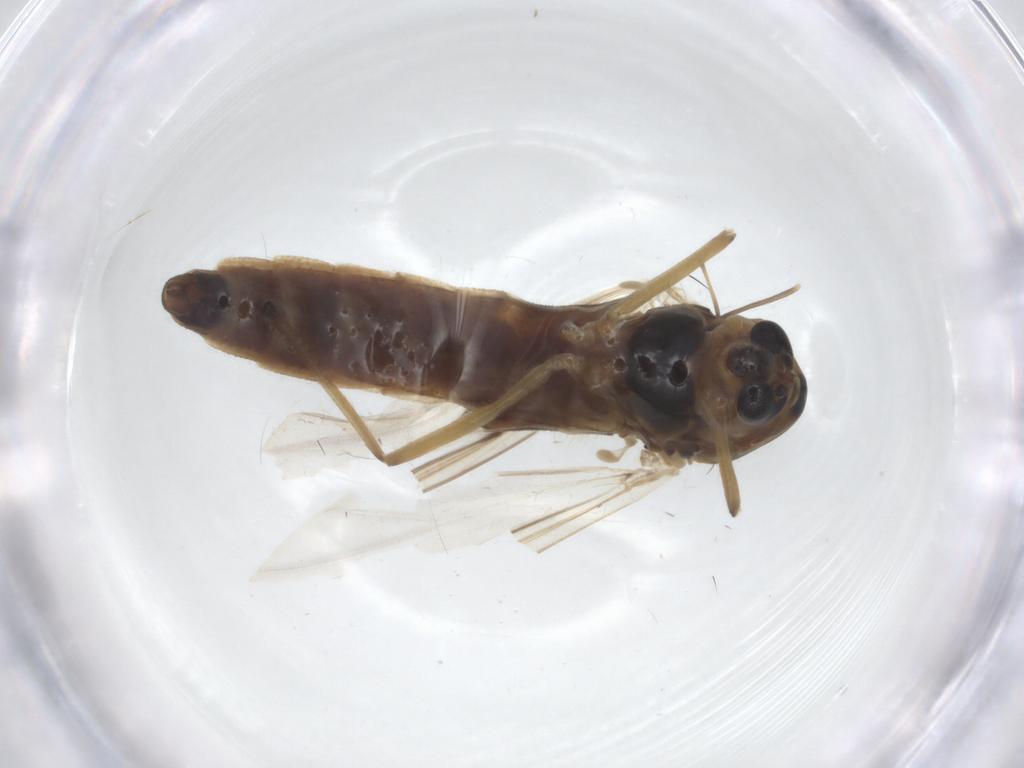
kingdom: Animalia
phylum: Arthropoda
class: Insecta
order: Diptera
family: Chironomidae
